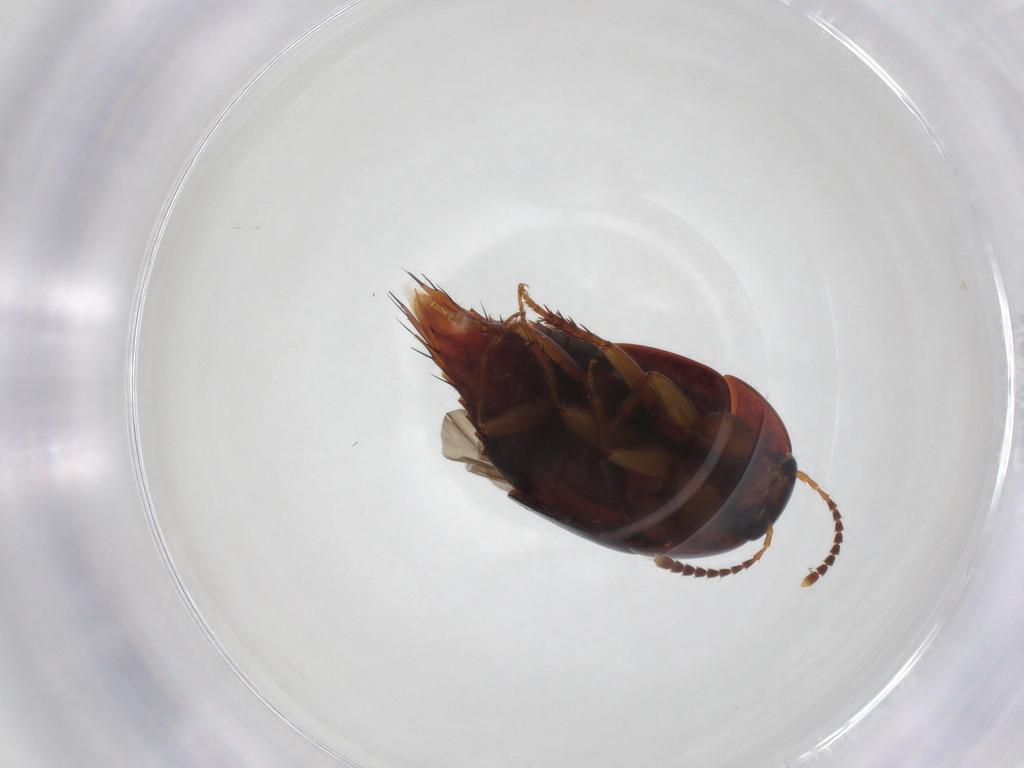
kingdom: Animalia
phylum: Arthropoda
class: Insecta
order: Coleoptera
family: Staphylinidae
